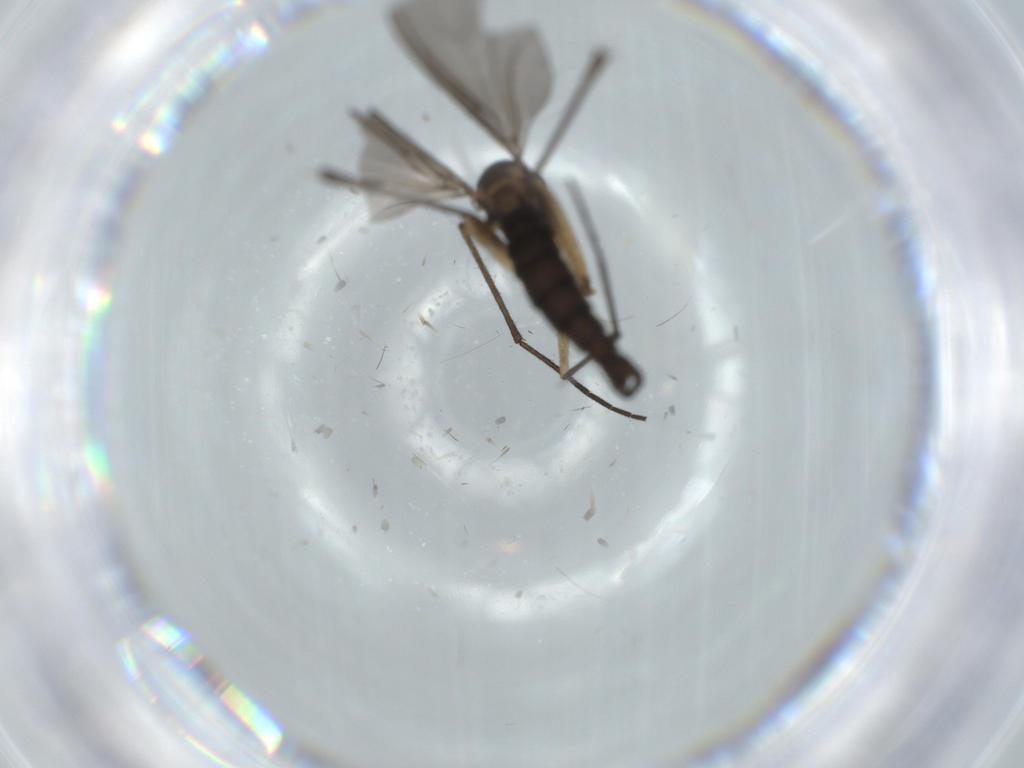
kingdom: Animalia
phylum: Arthropoda
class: Insecta
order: Diptera
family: Sciaridae
